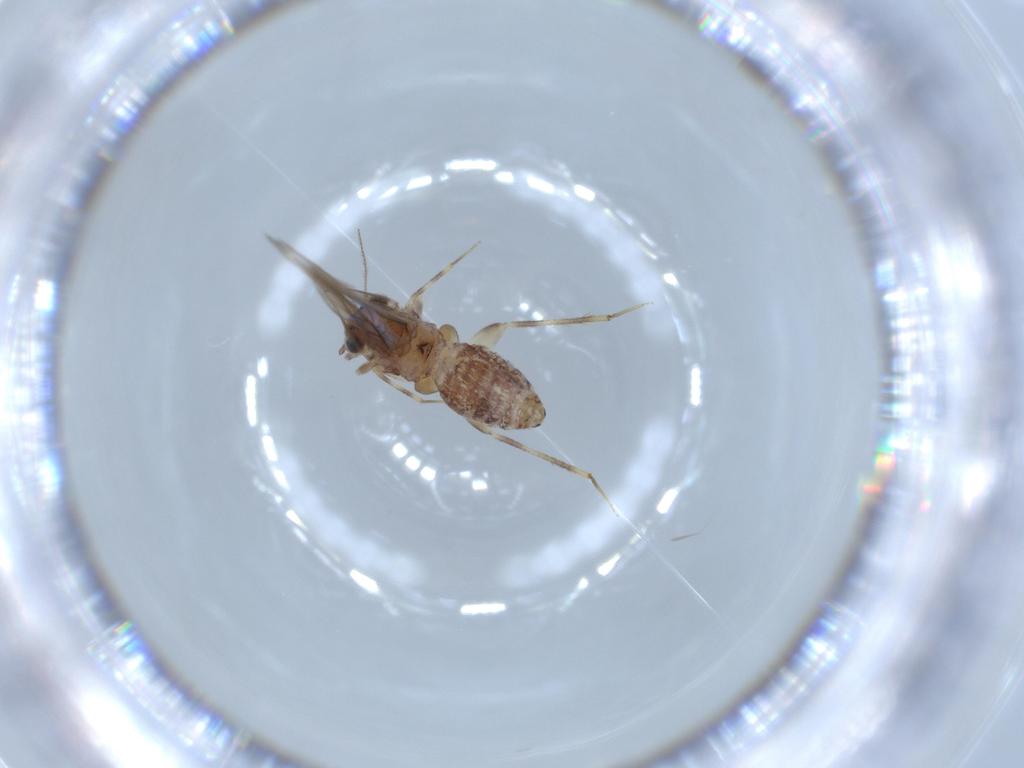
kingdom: Animalia
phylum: Arthropoda
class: Insecta
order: Psocodea
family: Lepidopsocidae
